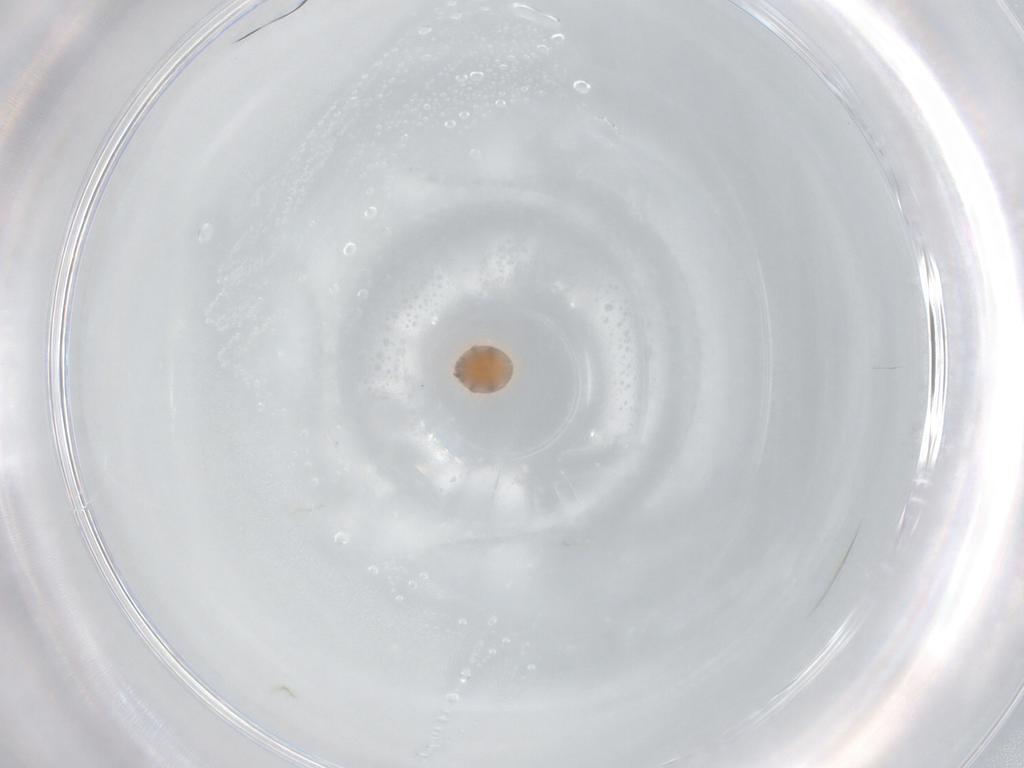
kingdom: Animalia
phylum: Arthropoda
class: Arachnida
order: Mesostigmata
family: Trematuridae
